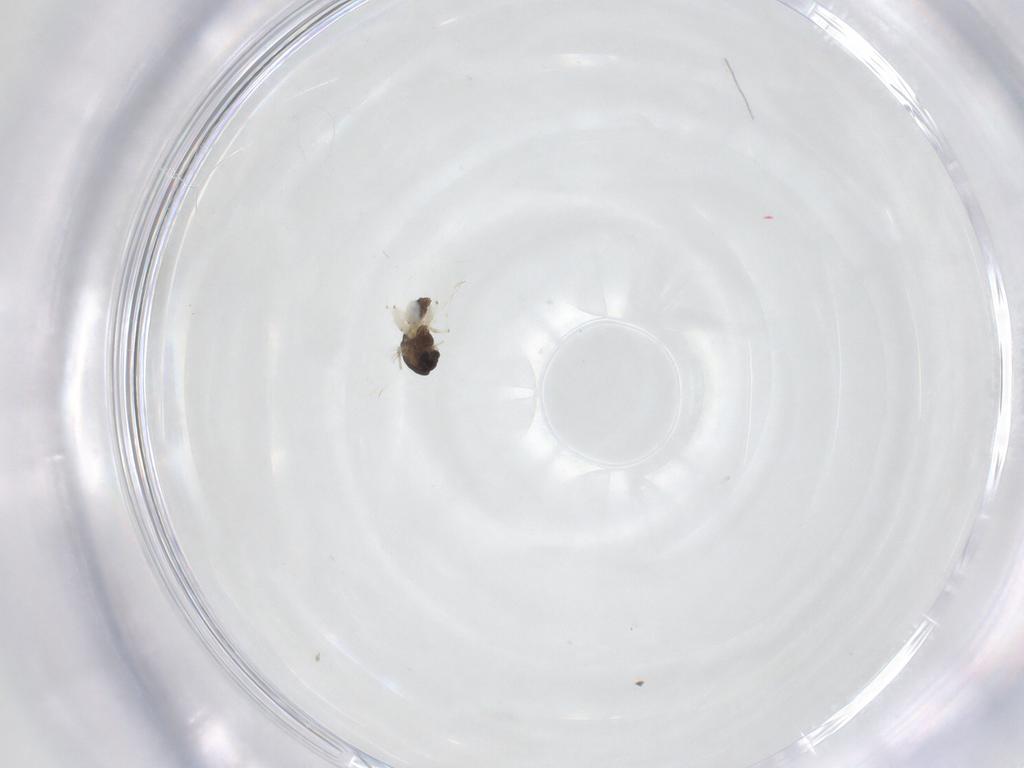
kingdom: Animalia
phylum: Arthropoda
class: Insecta
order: Diptera
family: Chironomidae
